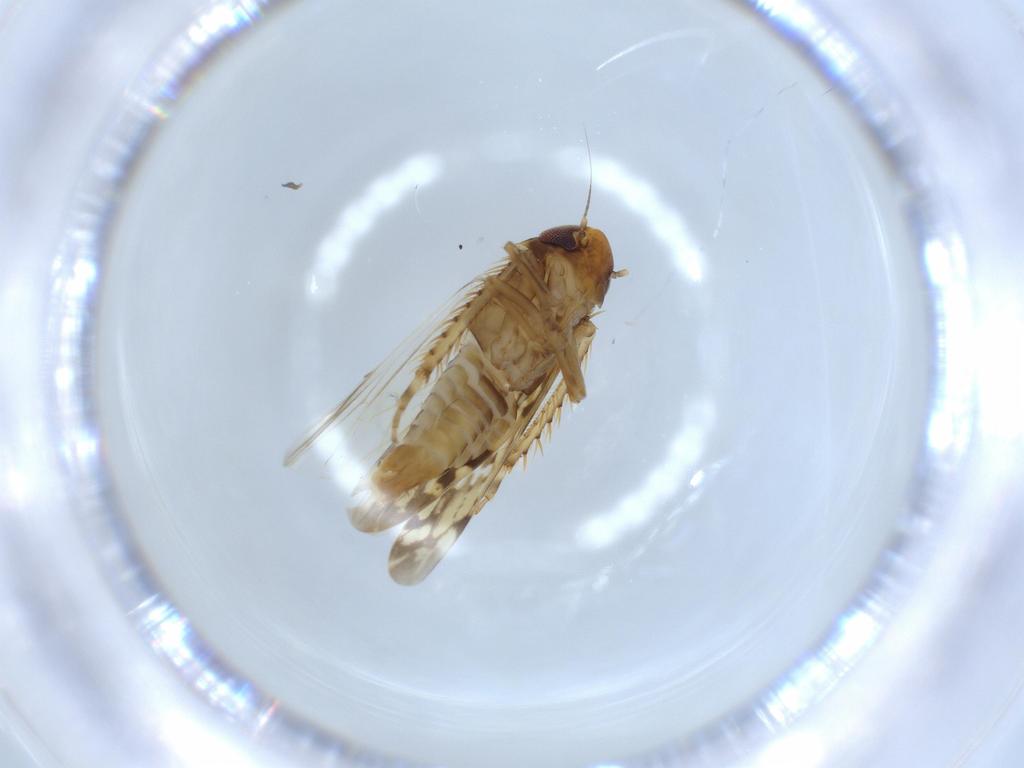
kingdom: Animalia
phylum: Arthropoda
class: Insecta
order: Hemiptera
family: Cicadellidae
